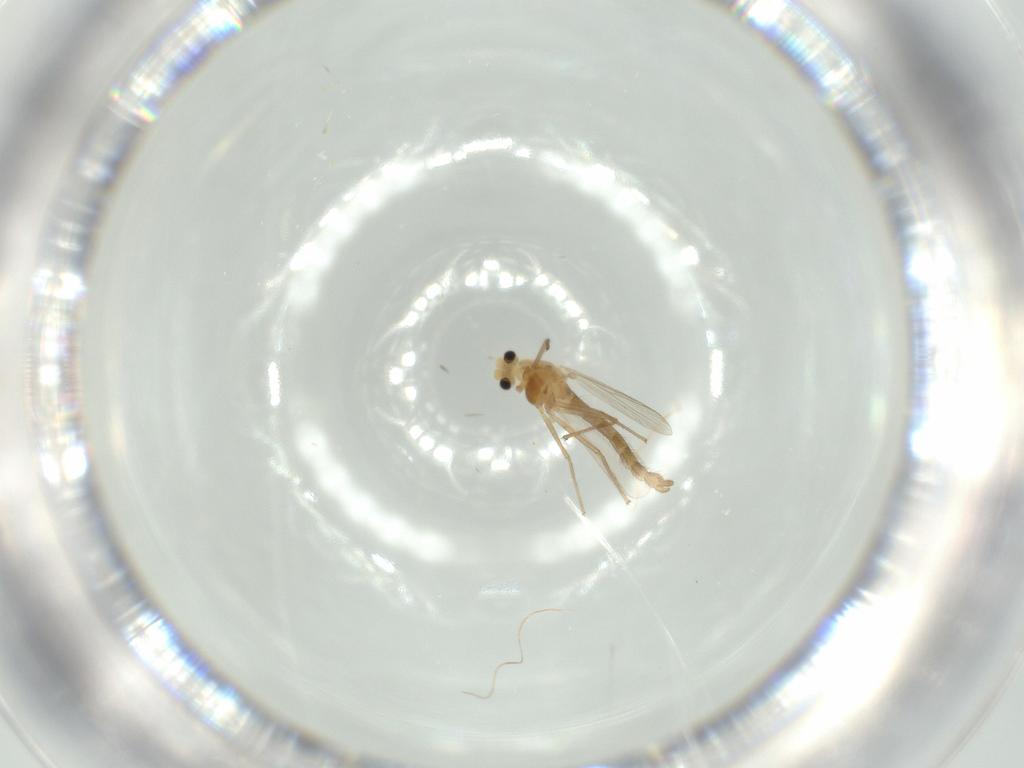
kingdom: Animalia
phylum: Arthropoda
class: Insecta
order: Diptera
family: Chironomidae
